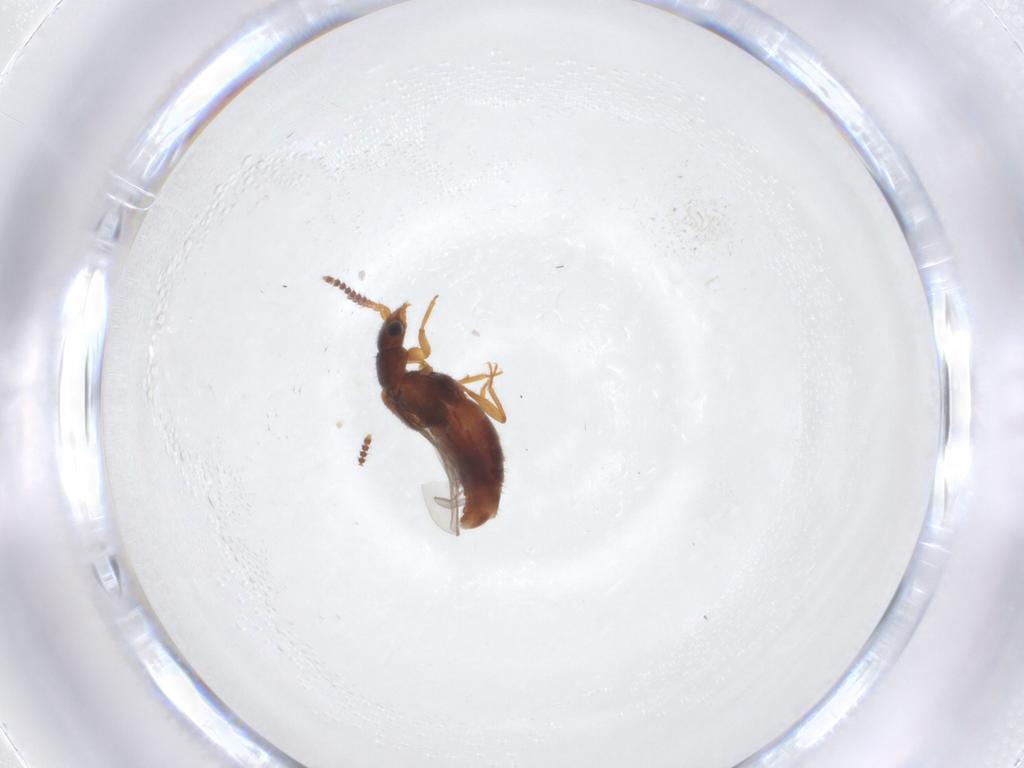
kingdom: Animalia
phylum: Arthropoda
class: Insecta
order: Coleoptera
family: Staphylinidae
